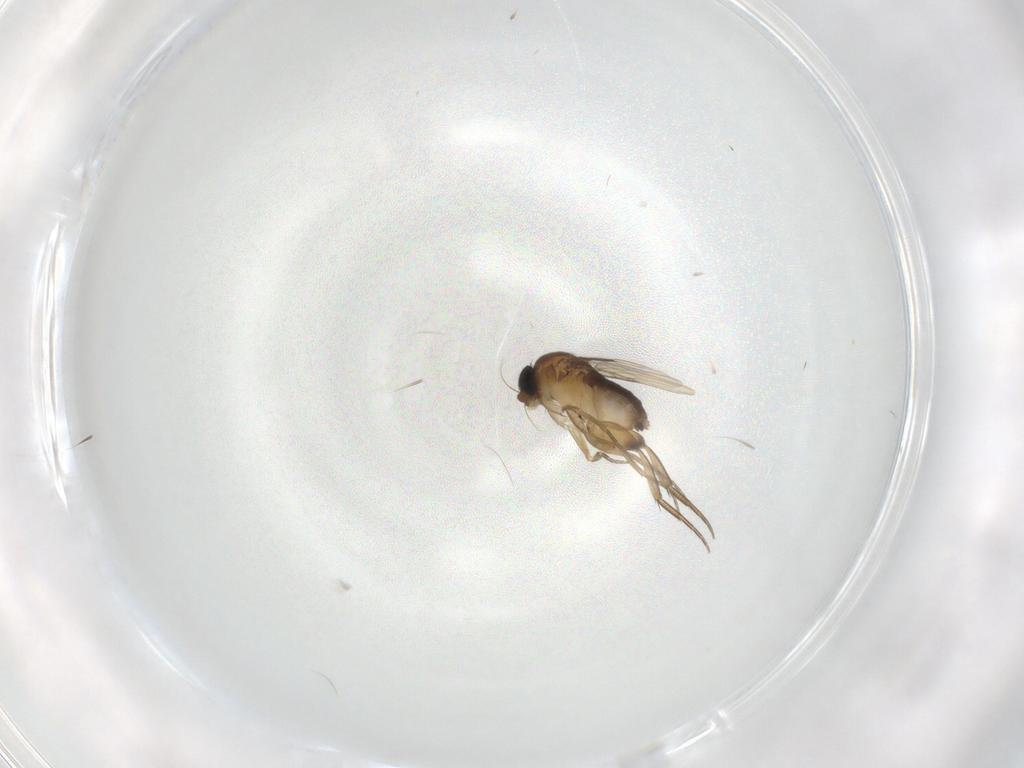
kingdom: Animalia
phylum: Arthropoda
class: Insecta
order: Diptera
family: Phoridae
